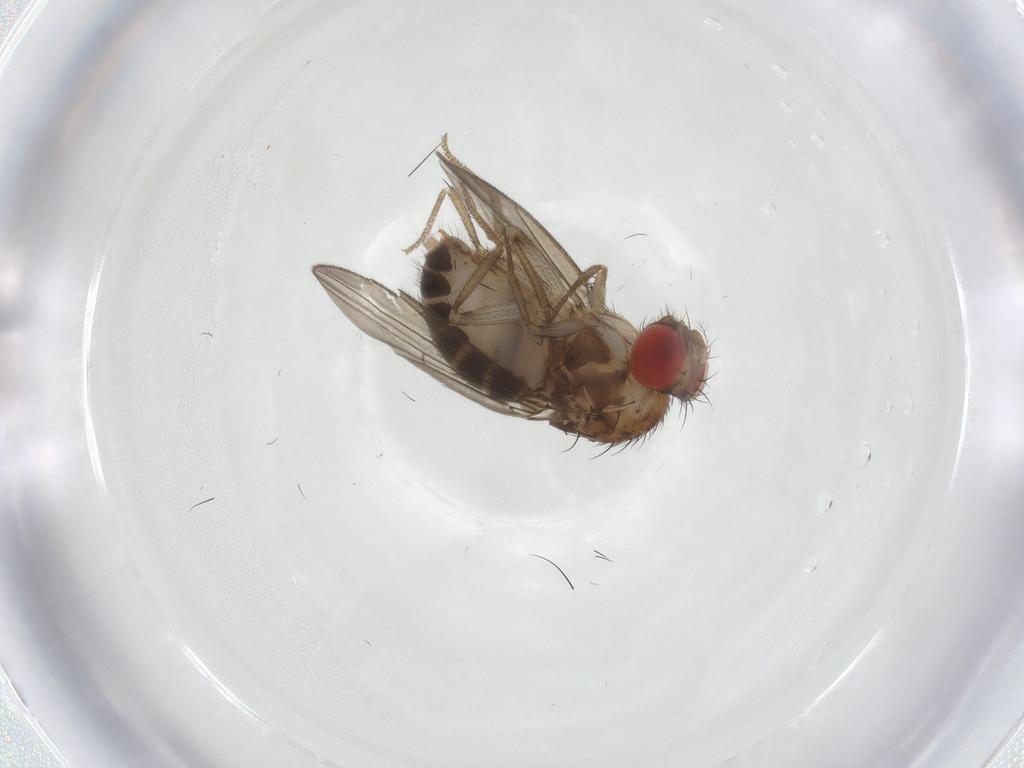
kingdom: Animalia
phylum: Arthropoda
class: Insecta
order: Diptera
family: Drosophilidae
